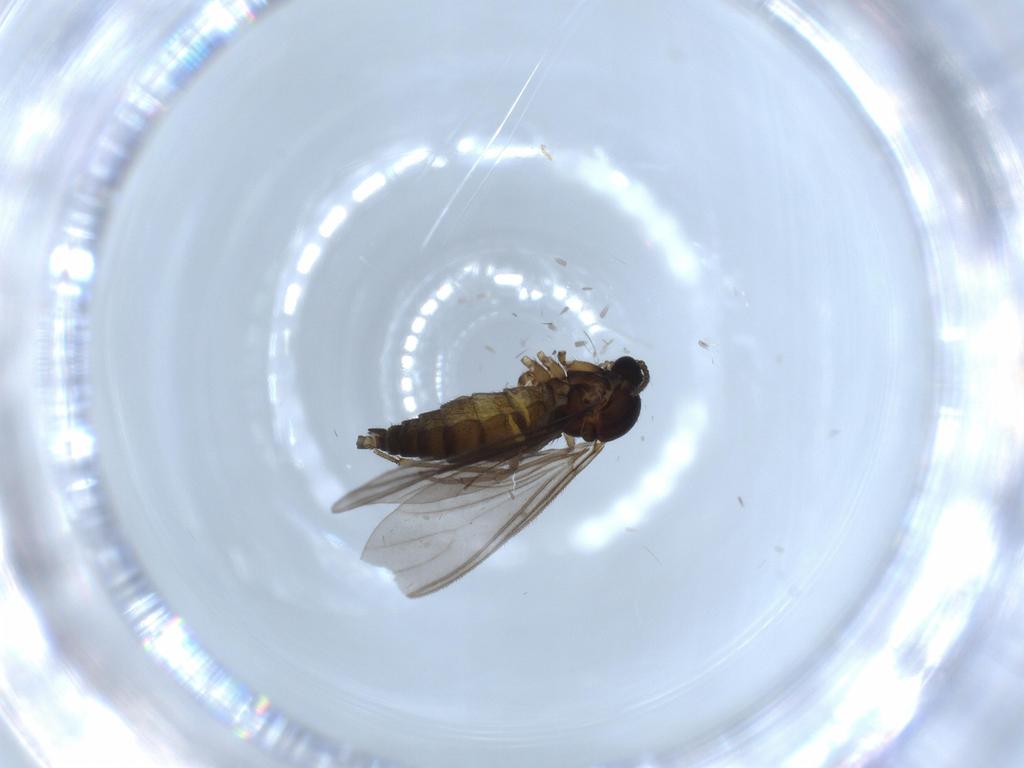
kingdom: Animalia
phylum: Arthropoda
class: Insecta
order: Diptera
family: Sciaridae
